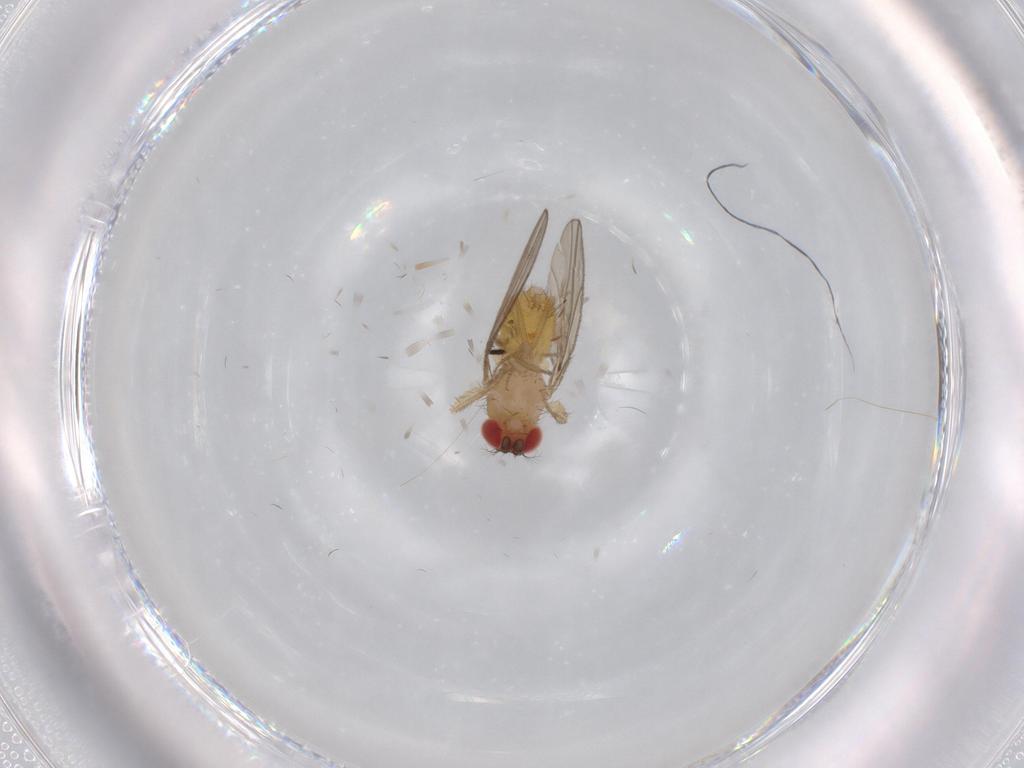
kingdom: Animalia
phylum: Arthropoda
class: Insecta
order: Diptera
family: Drosophilidae
